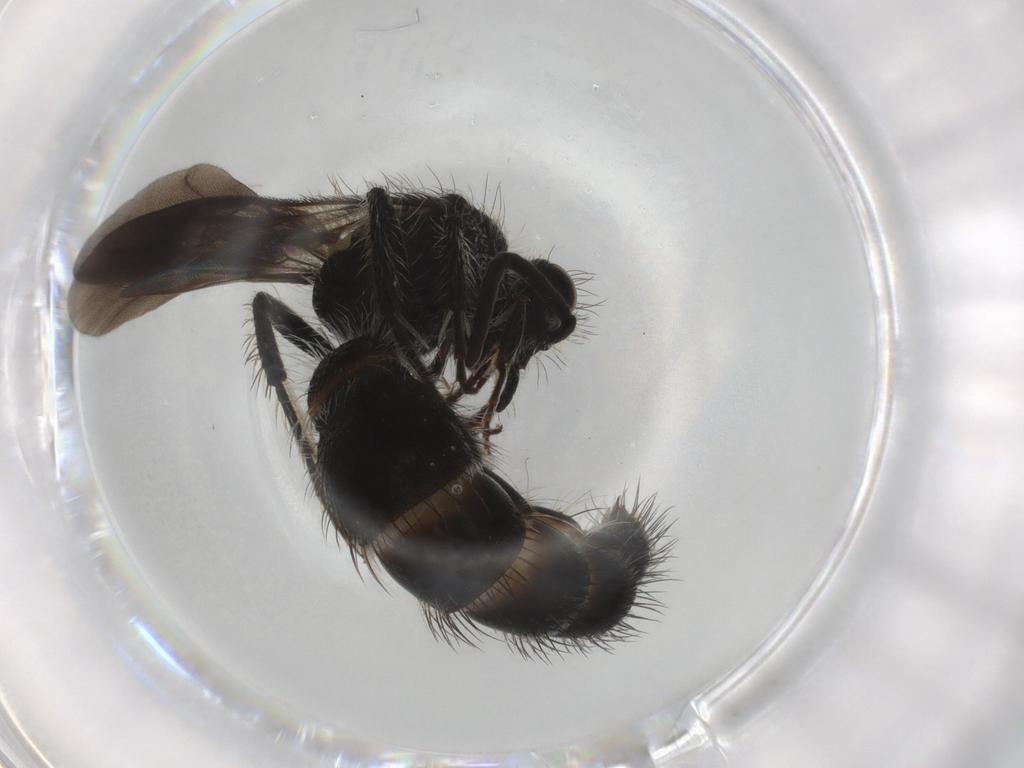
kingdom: Animalia
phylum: Arthropoda
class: Insecta
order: Hymenoptera
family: Mutillidae
